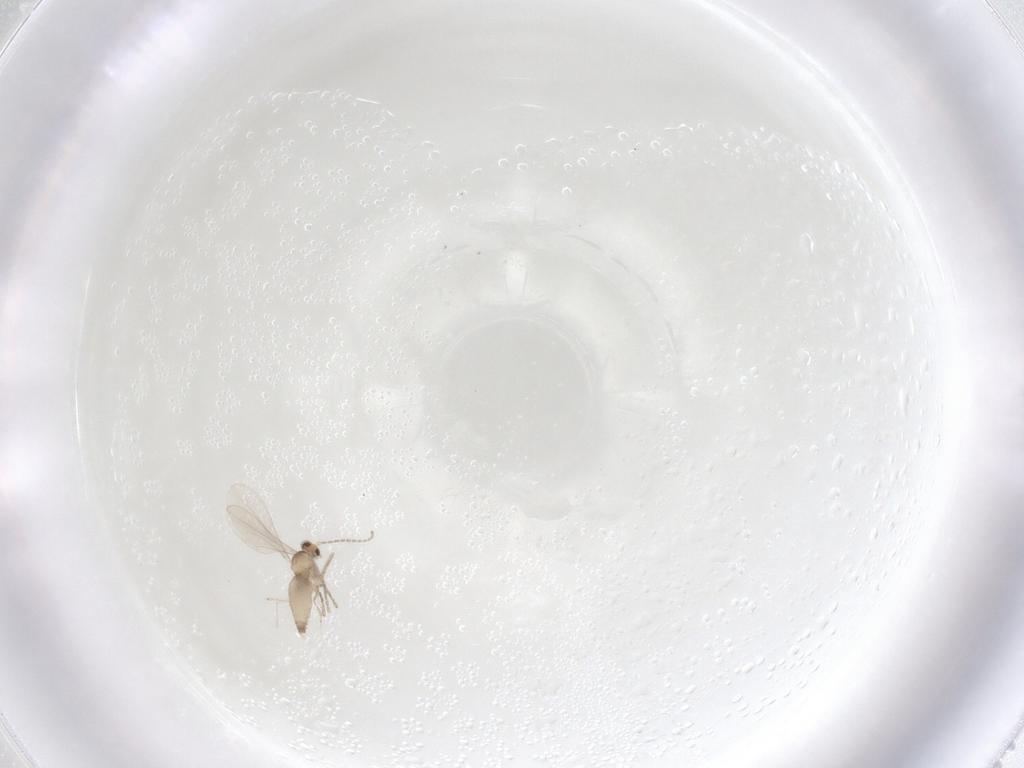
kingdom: Animalia
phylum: Arthropoda
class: Insecta
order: Diptera
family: Cecidomyiidae
